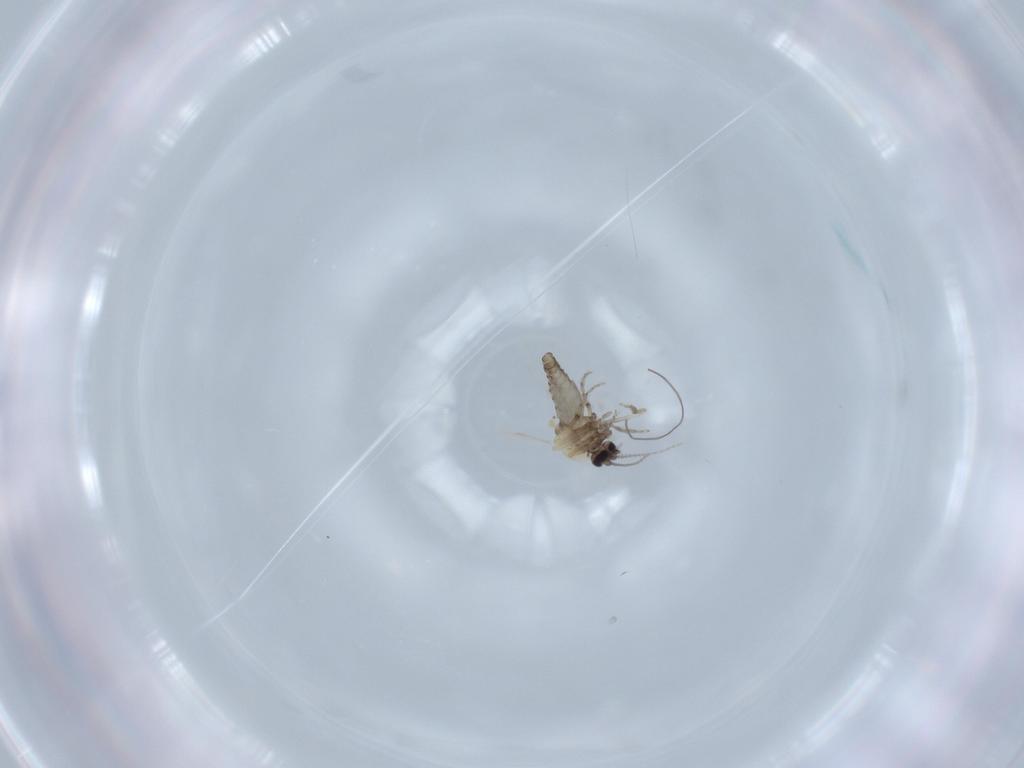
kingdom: Animalia
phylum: Arthropoda
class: Insecta
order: Diptera
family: Ceratopogonidae
